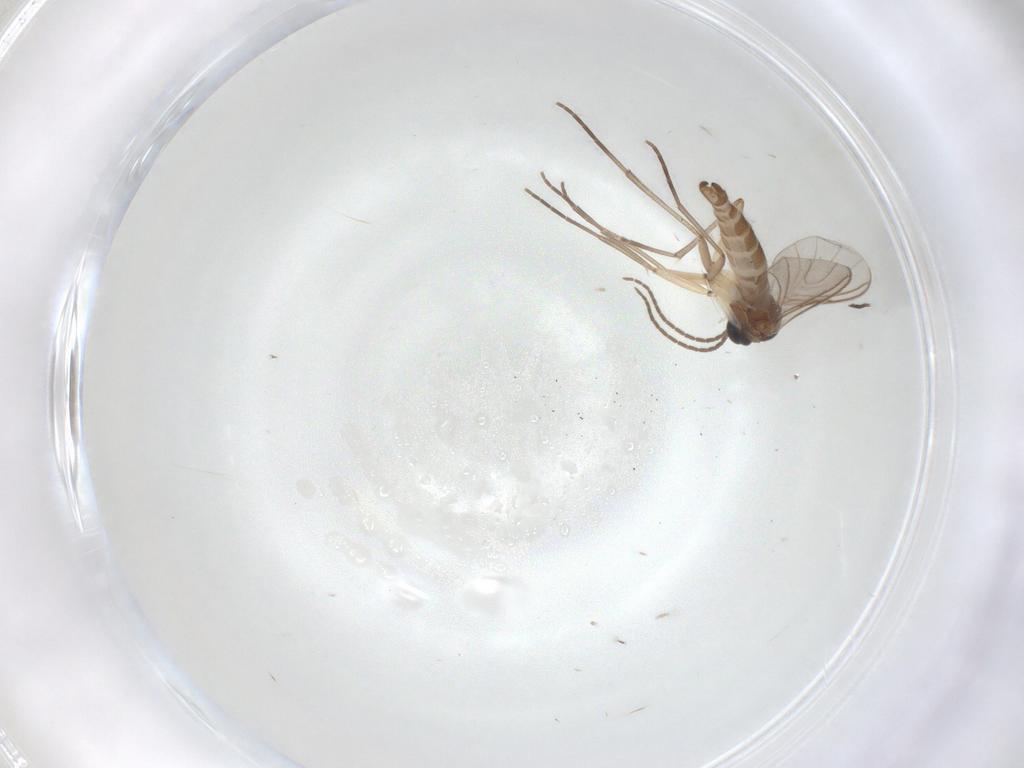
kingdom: Animalia
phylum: Arthropoda
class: Insecta
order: Diptera
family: Sciaridae
